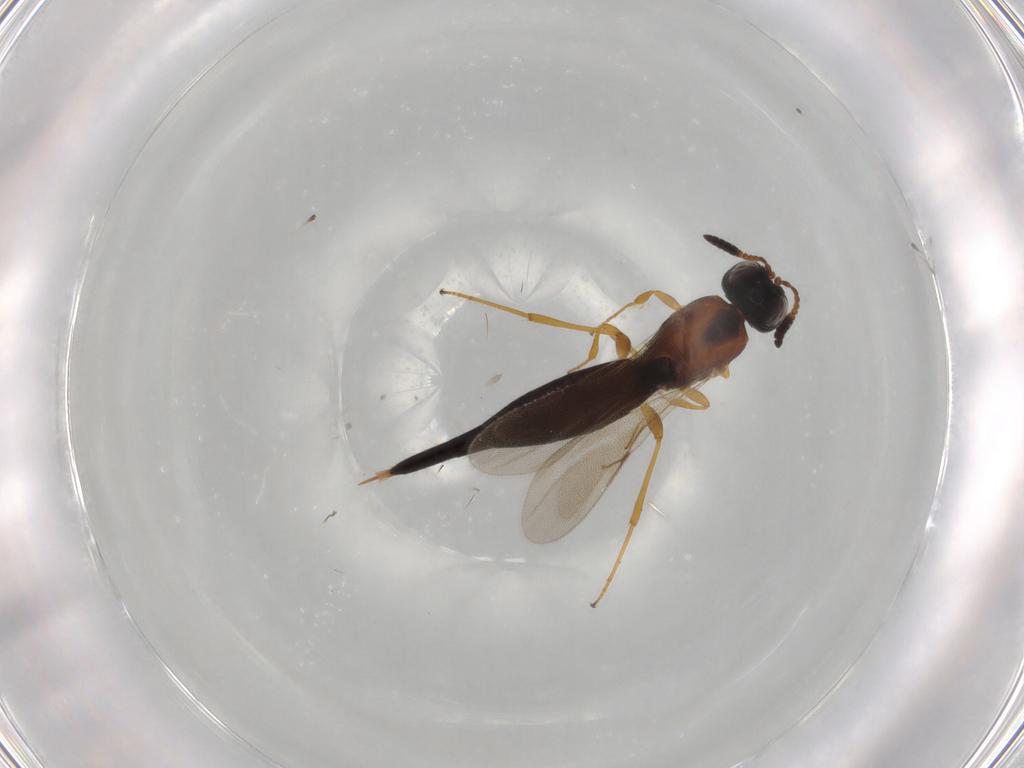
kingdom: Animalia
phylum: Arthropoda
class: Insecta
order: Hymenoptera
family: Scelionidae
